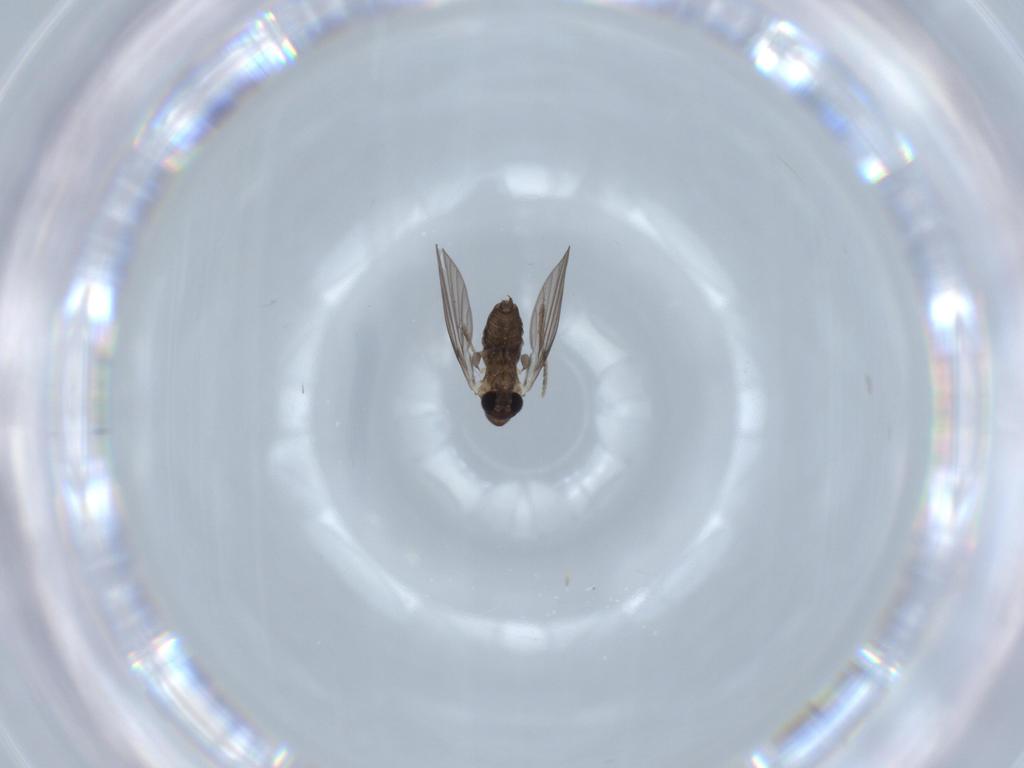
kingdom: Animalia
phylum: Arthropoda
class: Insecta
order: Diptera
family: Psychodidae
